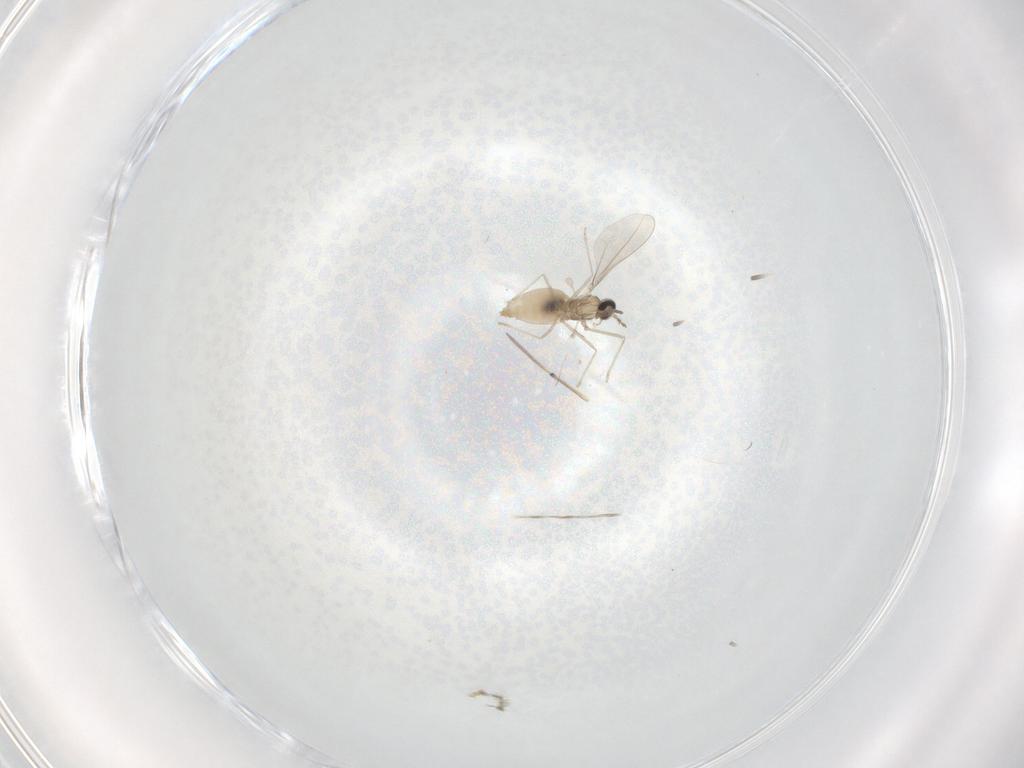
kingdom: Animalia
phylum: Arthropoda
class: Insecta
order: Diptera
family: Cecidomyiidae
